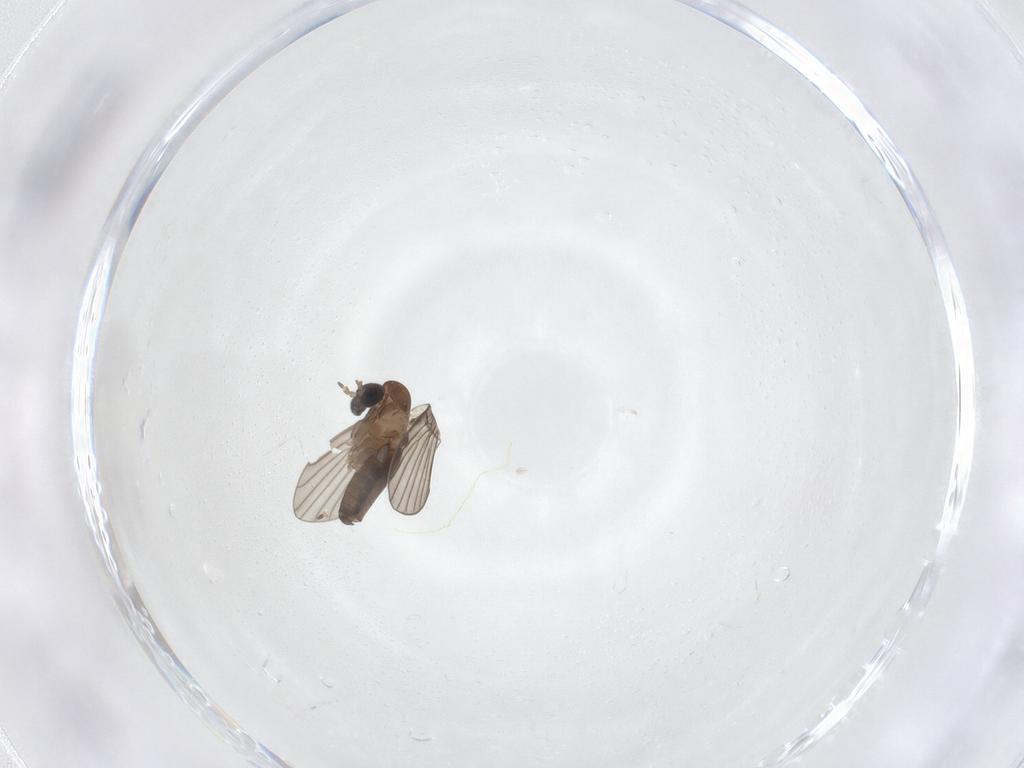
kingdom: Animalia
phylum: Arthropoda
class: Insecta
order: Diptera
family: Psychodidae
